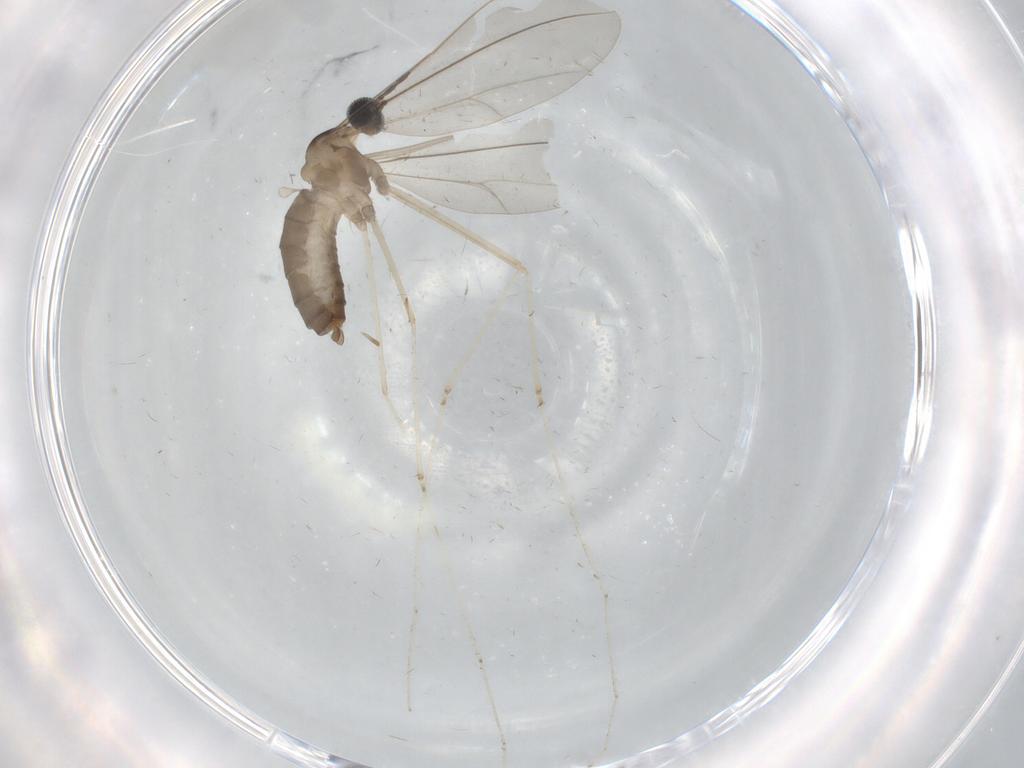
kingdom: Animalia
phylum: Arthropoda
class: Insecta
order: Diptera
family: Cecidomyiidae
